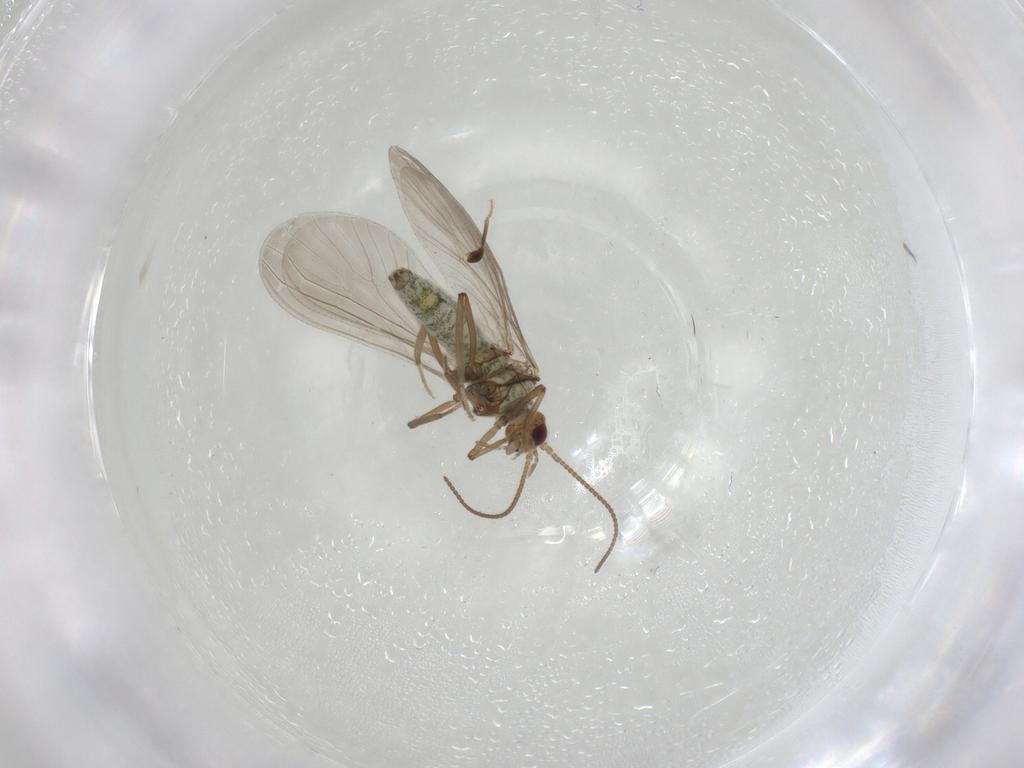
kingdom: Animalia
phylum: Arthropoda
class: Insecta
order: Neuroptera
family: Coniopterygidae
